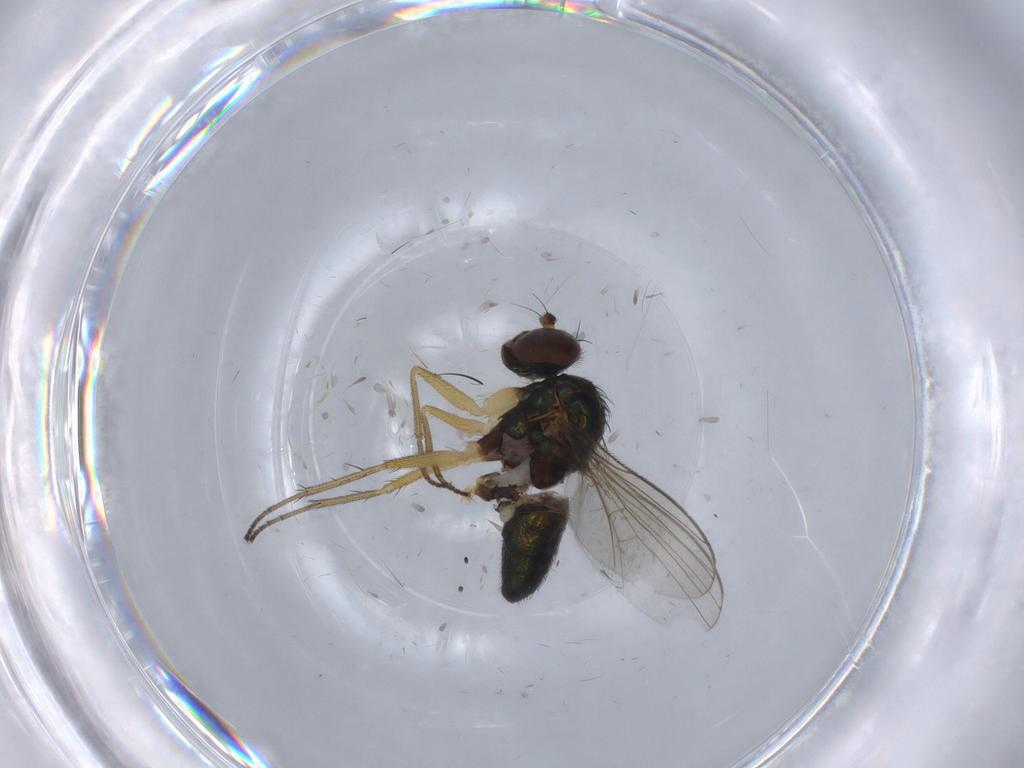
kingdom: Animalia
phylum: Arthropoda
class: Insecta
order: Diptera
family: Dolichopodidae
